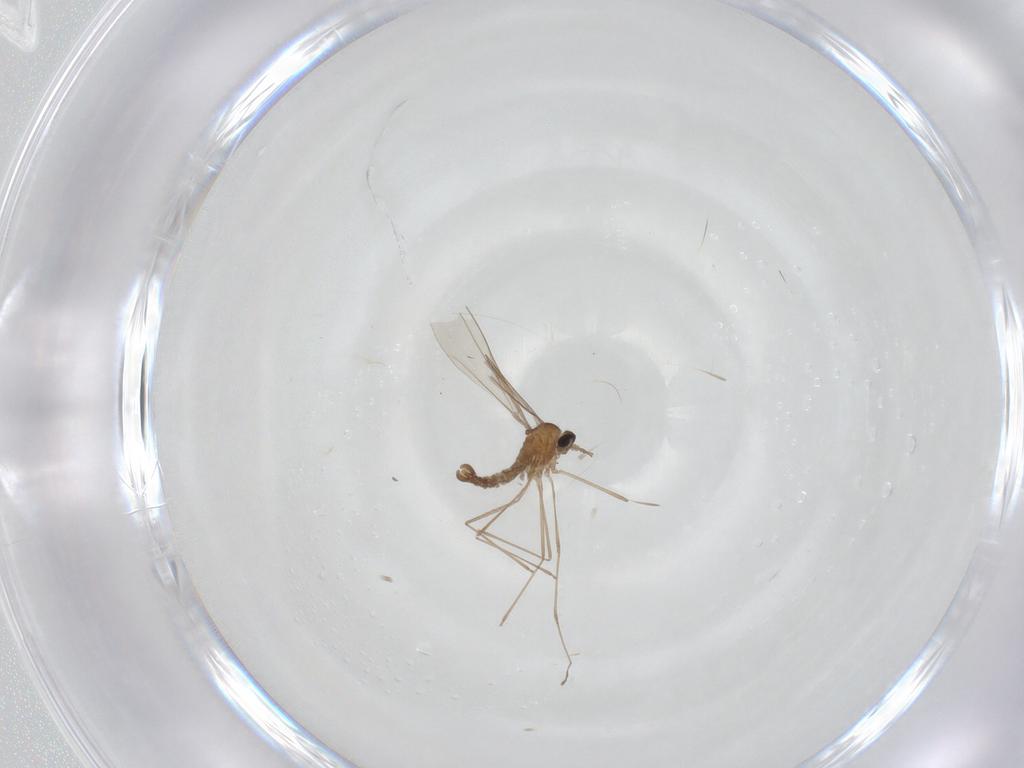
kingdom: Animalia
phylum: Arthropoda
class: Insecta
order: Diptera
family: Cecidomyiidae
